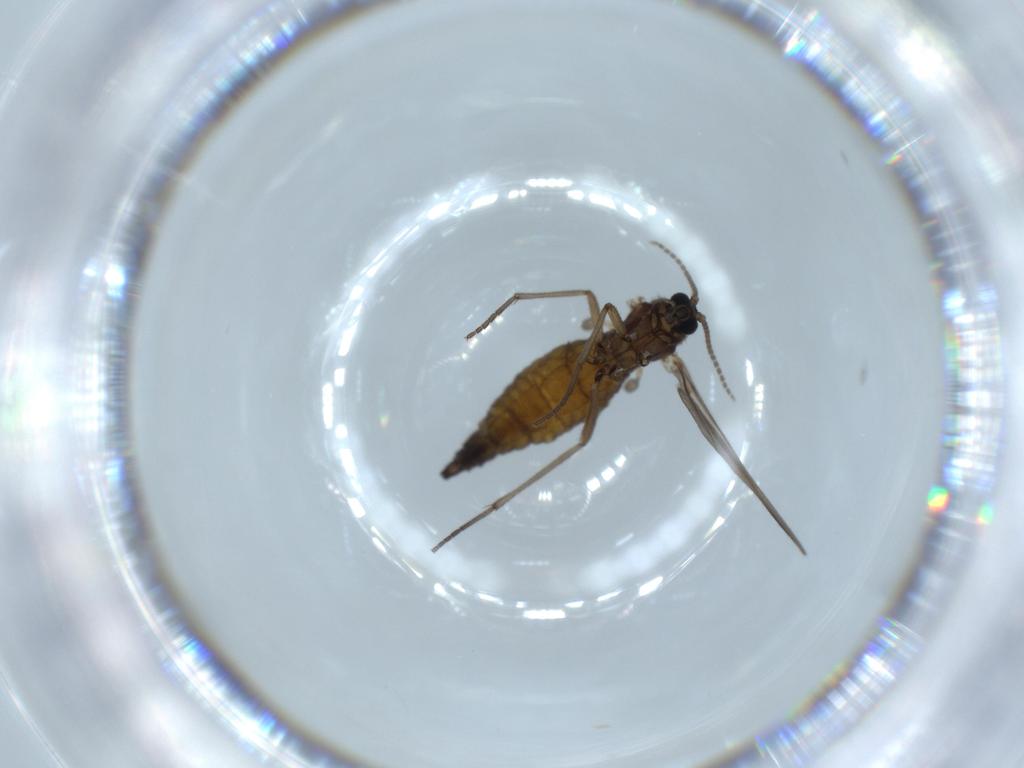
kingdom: Animalia
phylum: Arthropoda
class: Insecta
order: Diptera
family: Sciaridae
